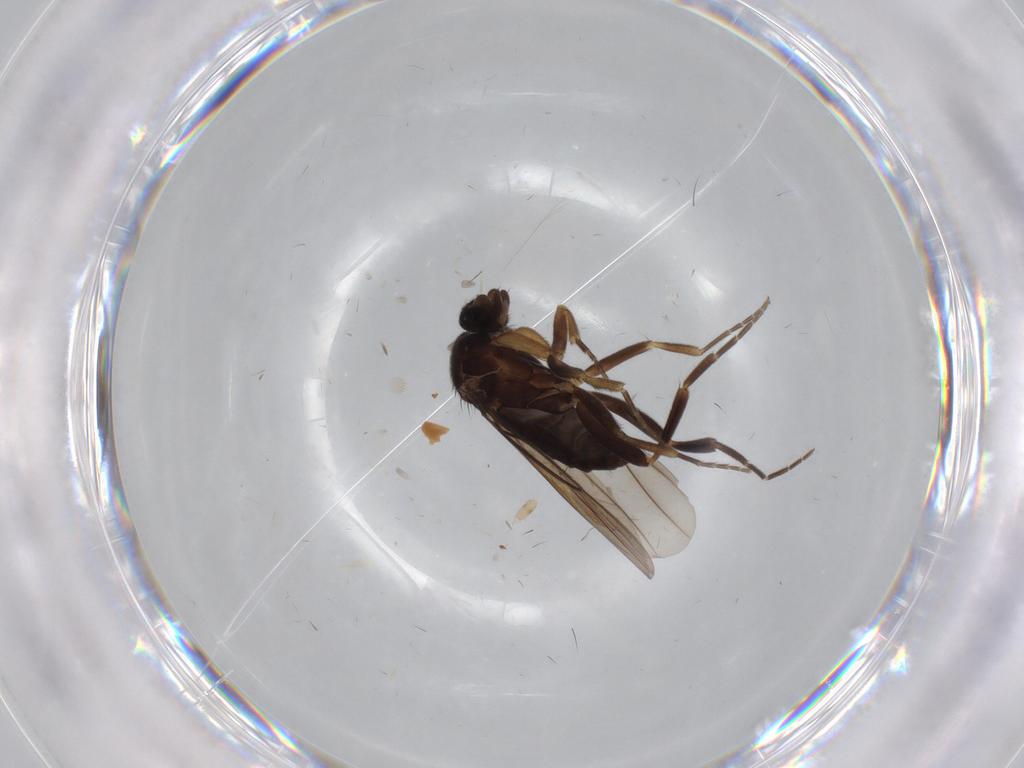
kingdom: Animalia
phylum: Arthropoda
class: Insecta
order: Diptera
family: Phoridae
